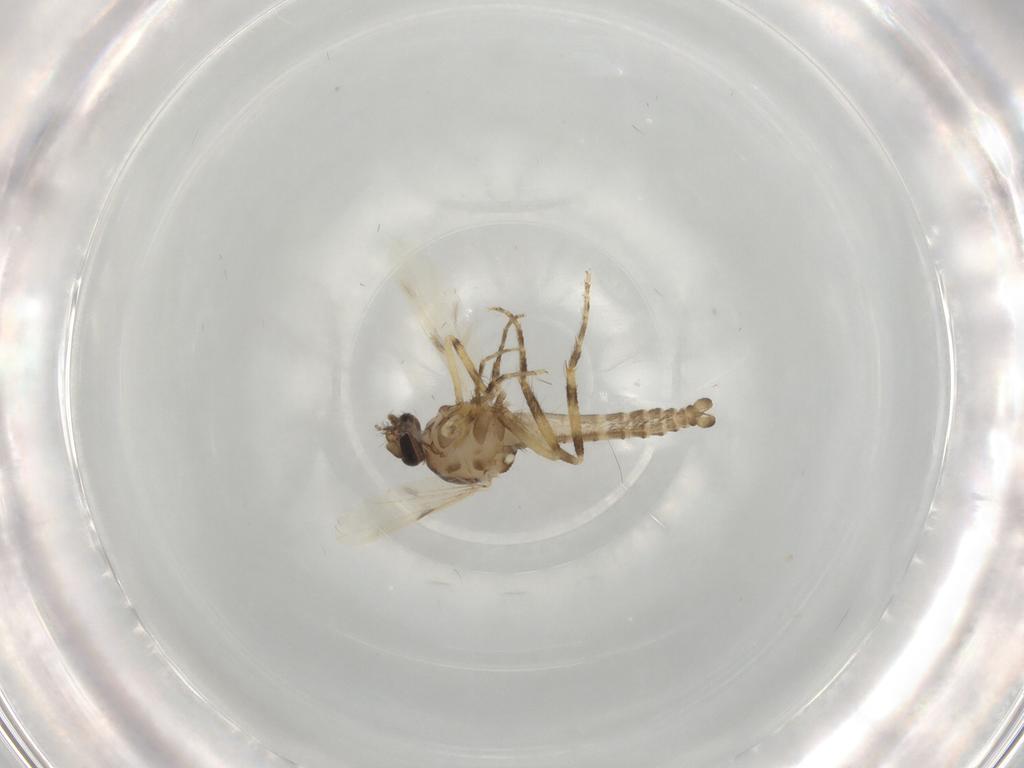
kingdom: Animalia
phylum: Arthropoda
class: Insecta
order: Diptera
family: Ceratopogonidae
